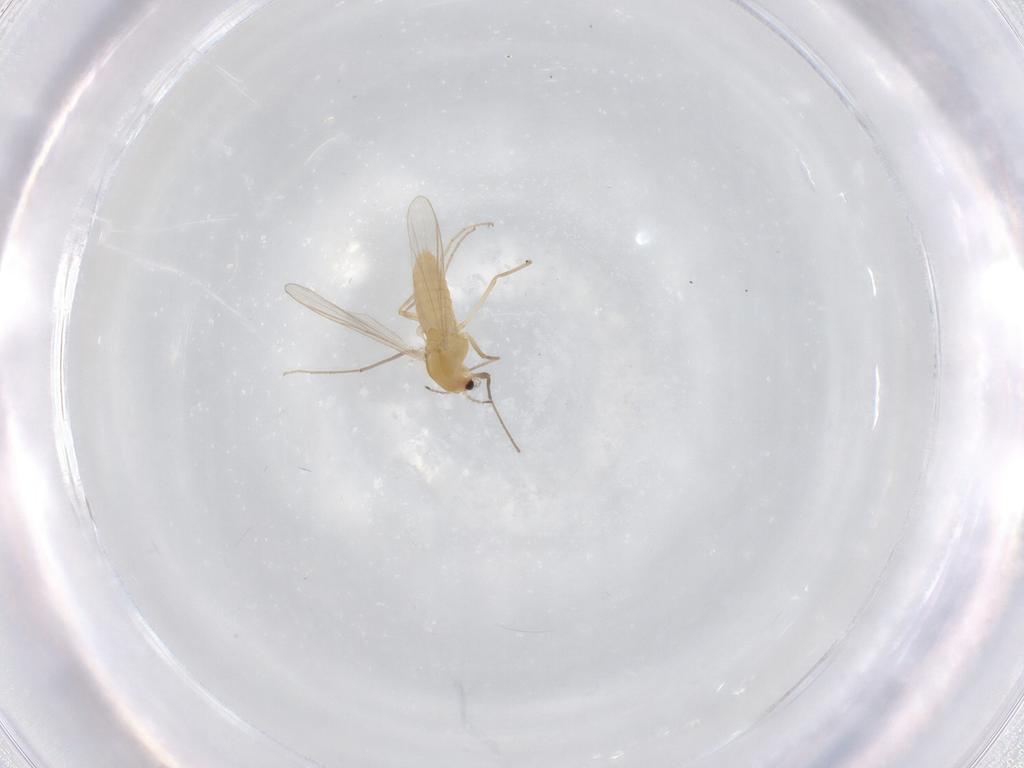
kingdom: Animalia
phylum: Arthropoda
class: Insecta
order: Diptera
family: Chironomidae
